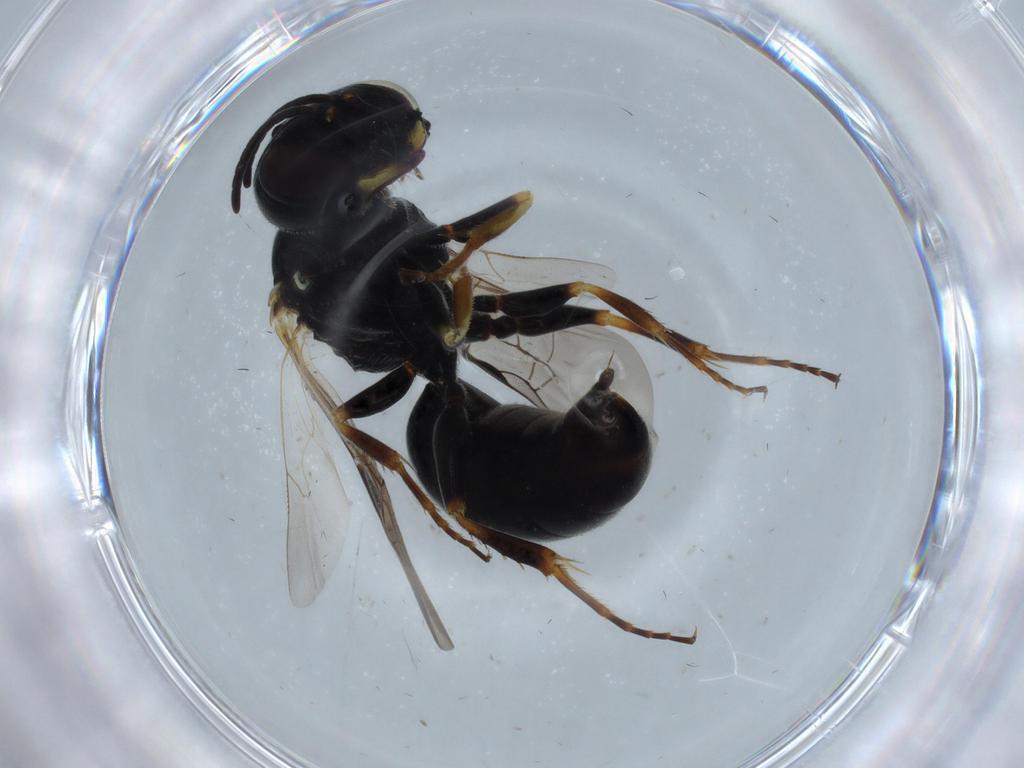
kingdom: Animalia
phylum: Arthropoda
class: Insecta
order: Hymenoptera
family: Crabronidae
